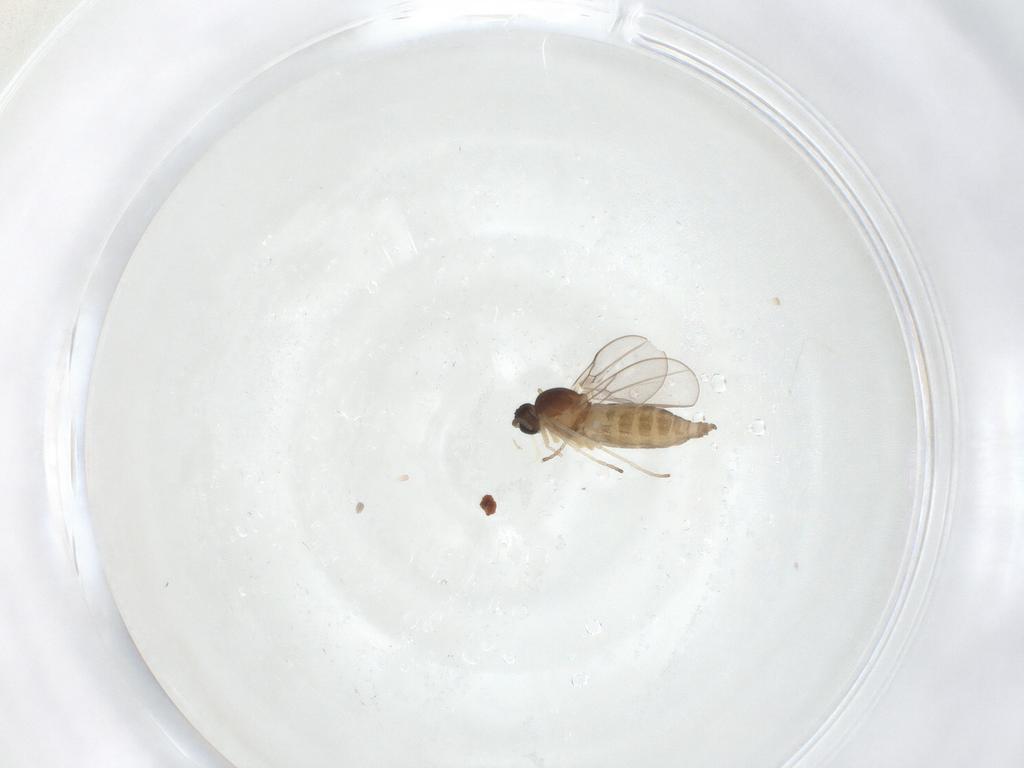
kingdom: Animalia
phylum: Arthropoda
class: Insecta
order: Diptera
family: Cecidomyiidae
